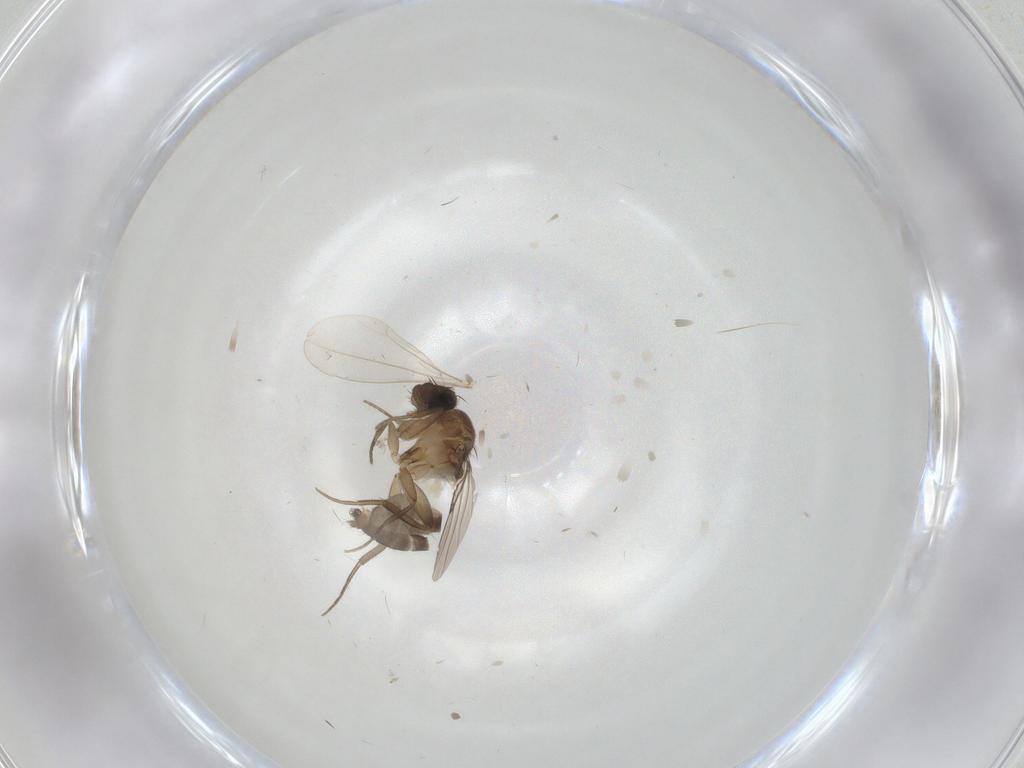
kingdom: Animalia
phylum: Arthropoda
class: Insecta
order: Diptera
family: Phoridae
